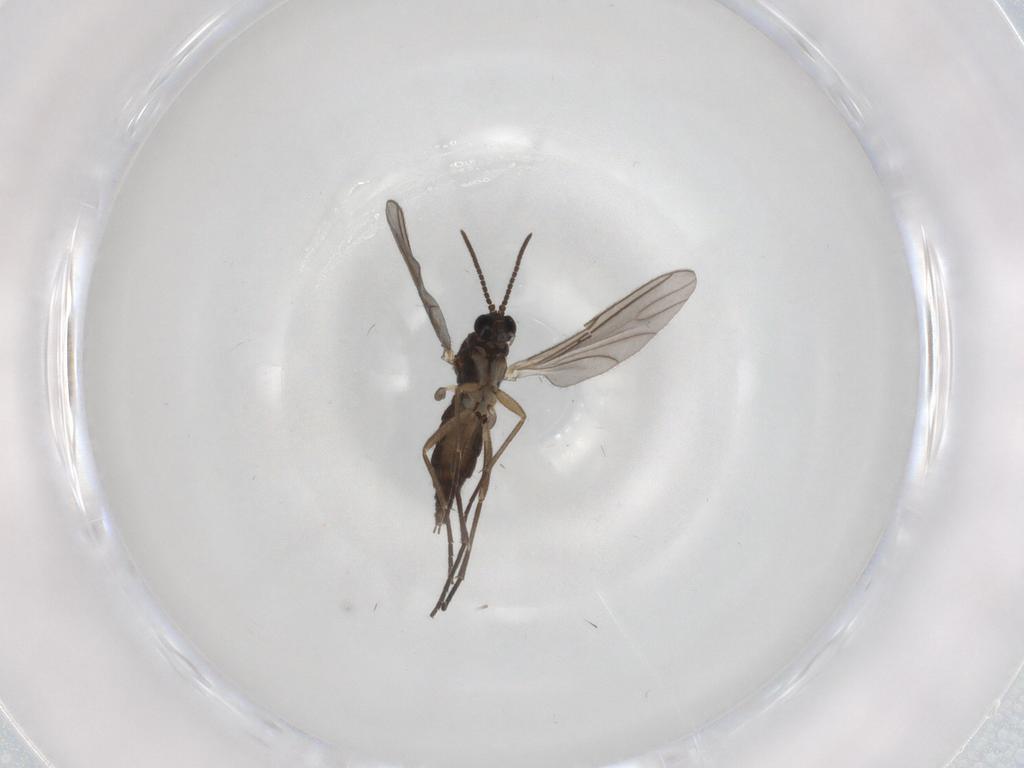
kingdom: Animalia
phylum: Arthropoda
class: Insecta
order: Diptera
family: Sciaridae
